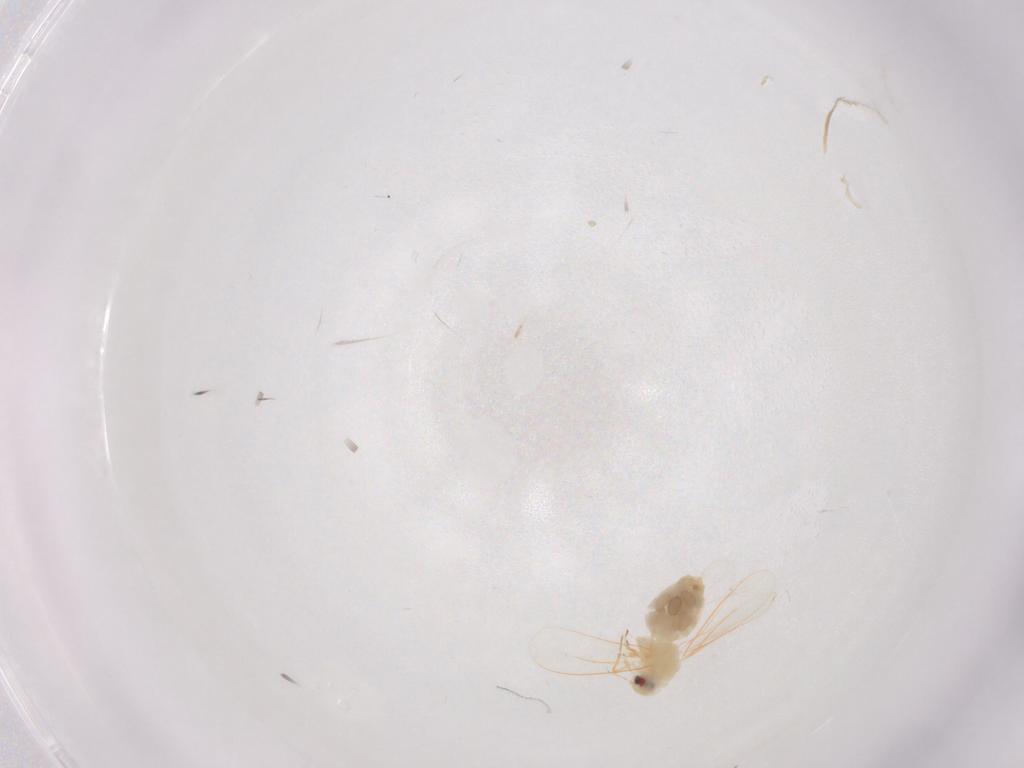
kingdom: Animalia
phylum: Arthropoda
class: Insecta
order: Hemiptera
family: Aleyrodidae
